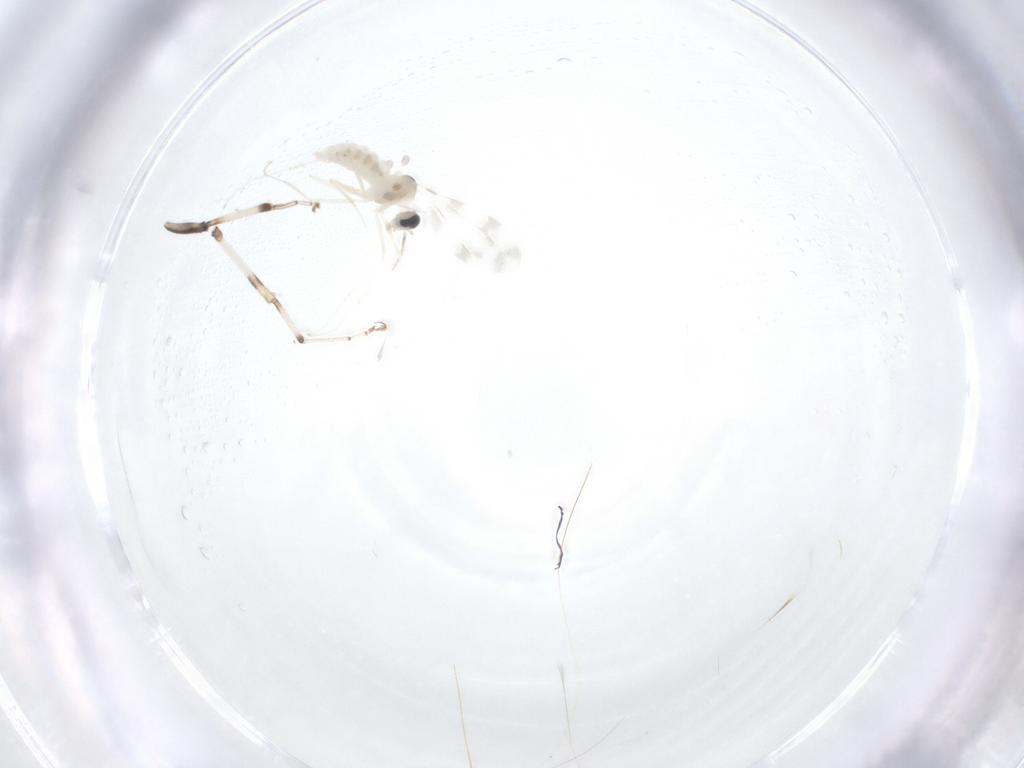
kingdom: Animalia
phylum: Arthropoda
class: Insecta
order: Diptera
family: Cecidomyiidae
